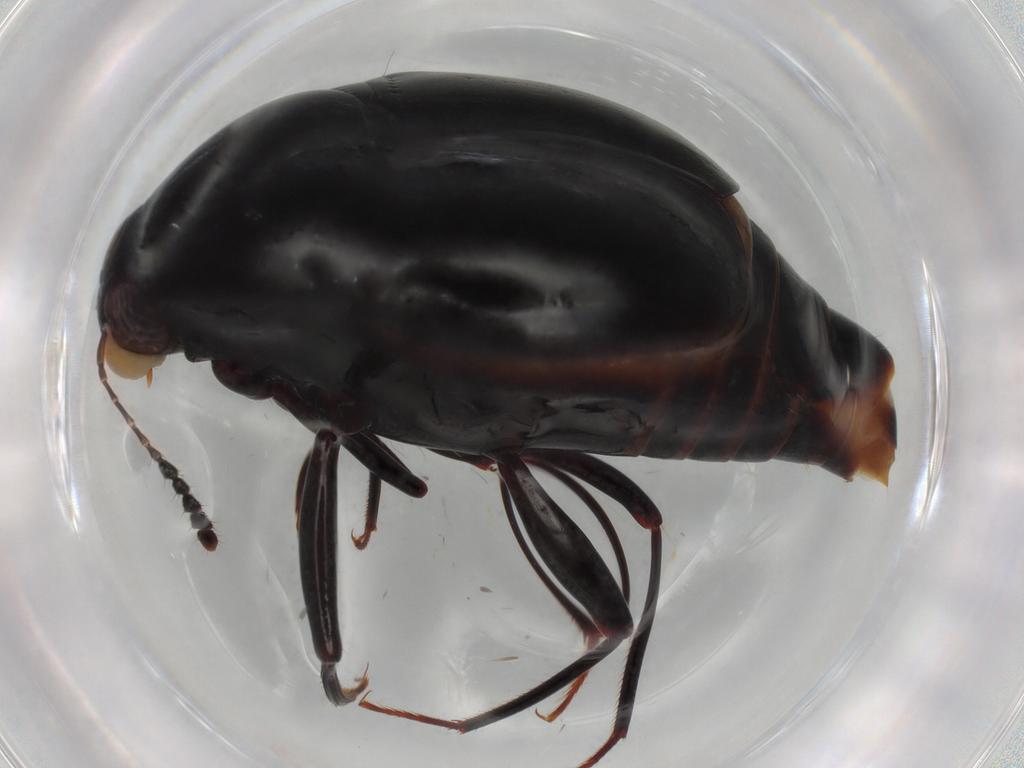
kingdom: Animalia
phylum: Arthropoda
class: Insecta
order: Coleoptera
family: Staphylinidae
